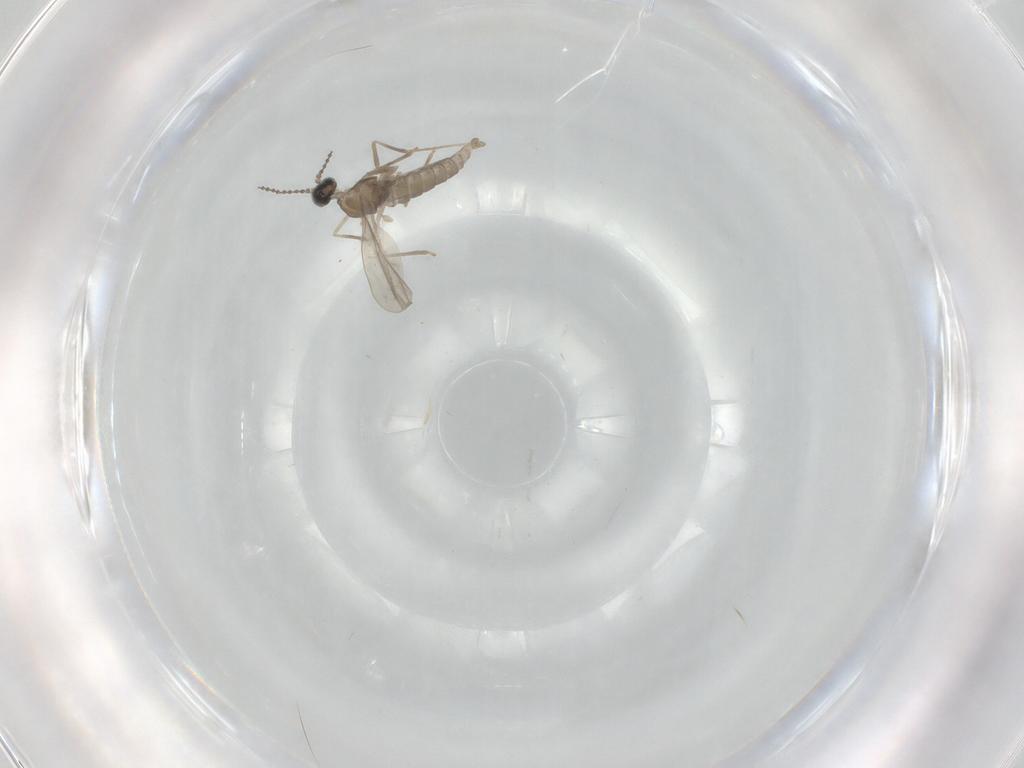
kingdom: Animalia
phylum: Arthropoda
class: Insecta
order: Diptera
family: Cecidomyiidae
